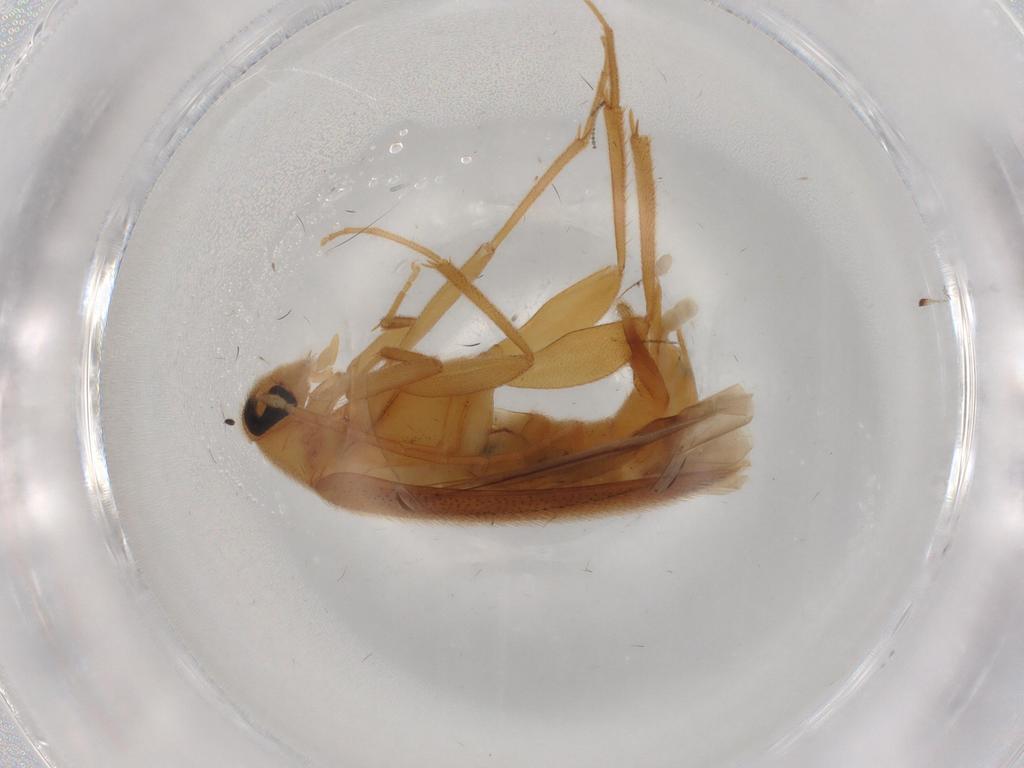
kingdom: Animalia
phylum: Arthropoda
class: Insecta
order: Coleoptera
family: Scraptiidae
